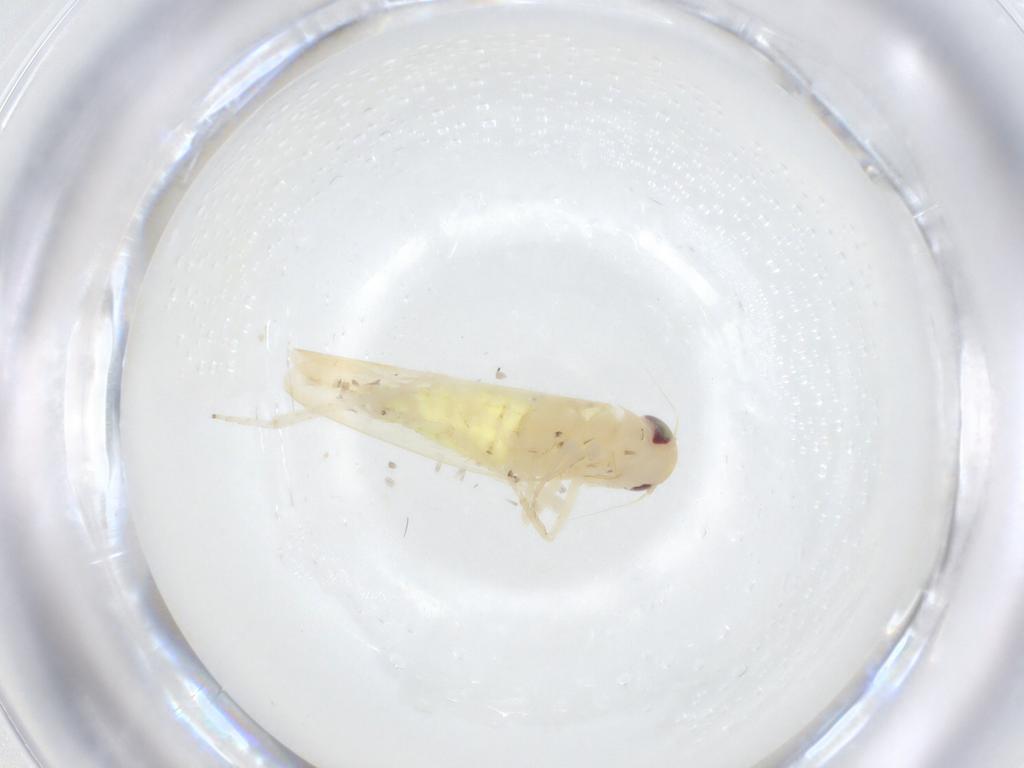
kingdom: Animalia
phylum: Arthropoda
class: Insecta
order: Hemiptera
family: Cicadellidae
